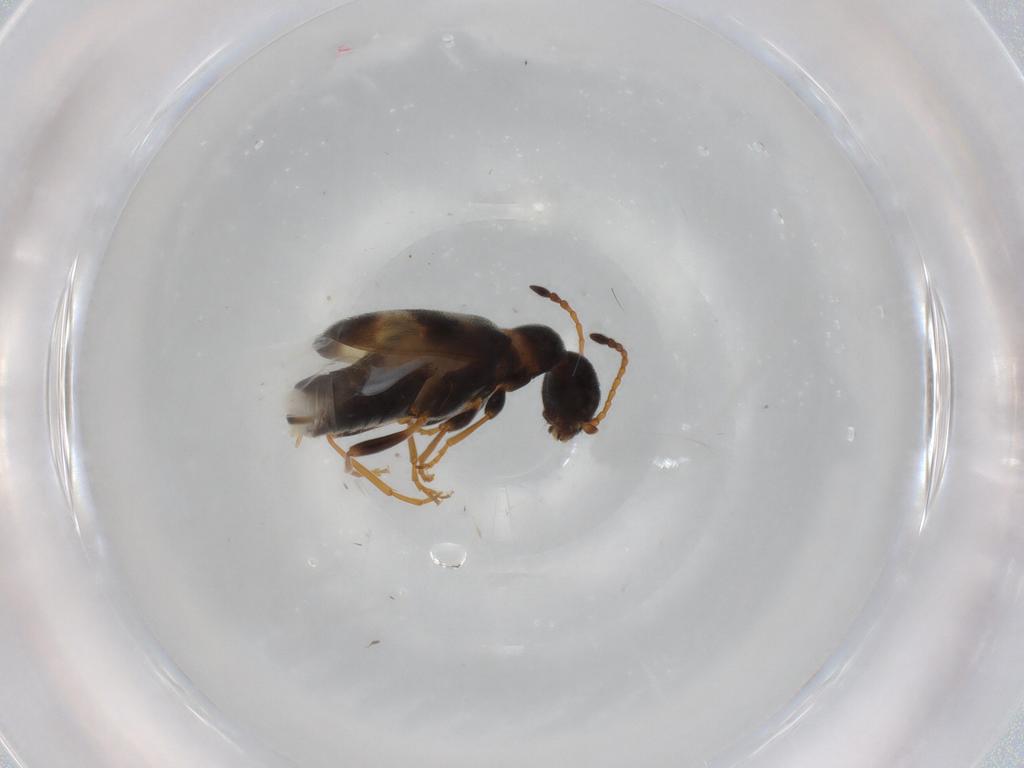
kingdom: Animalia
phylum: Arthropoda
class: Insecta
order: Coleoptera
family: Anthicidae
